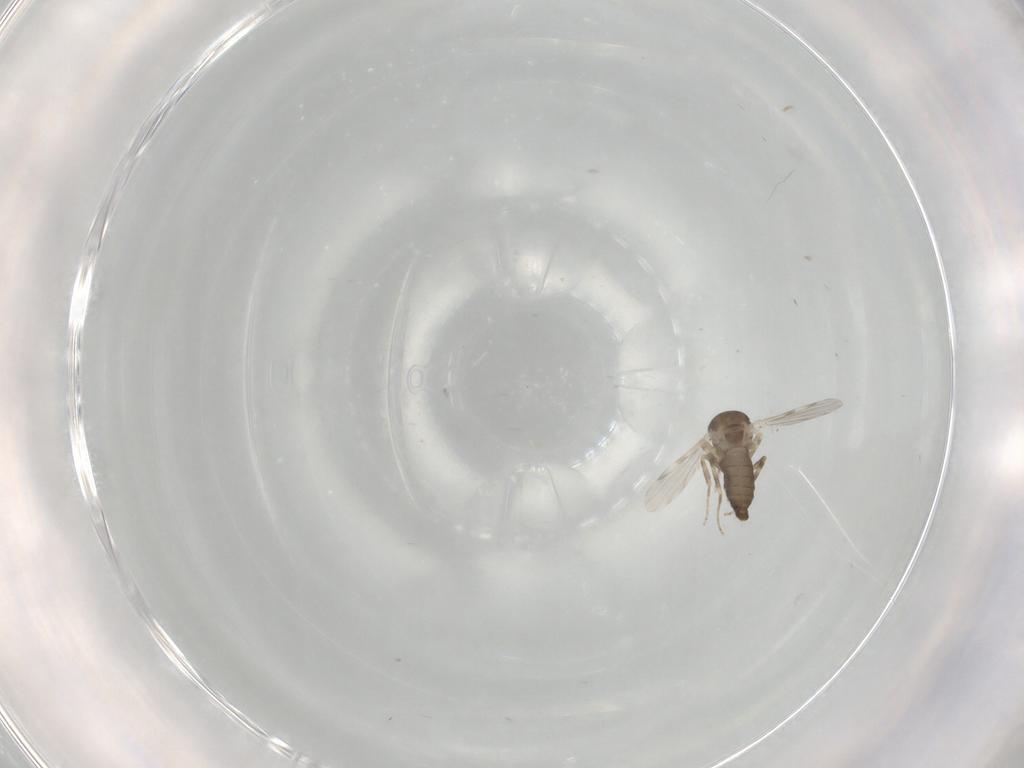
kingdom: Animalia
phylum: Arthropoda
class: Insecta
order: Diptera
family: Ceratopogonidae
